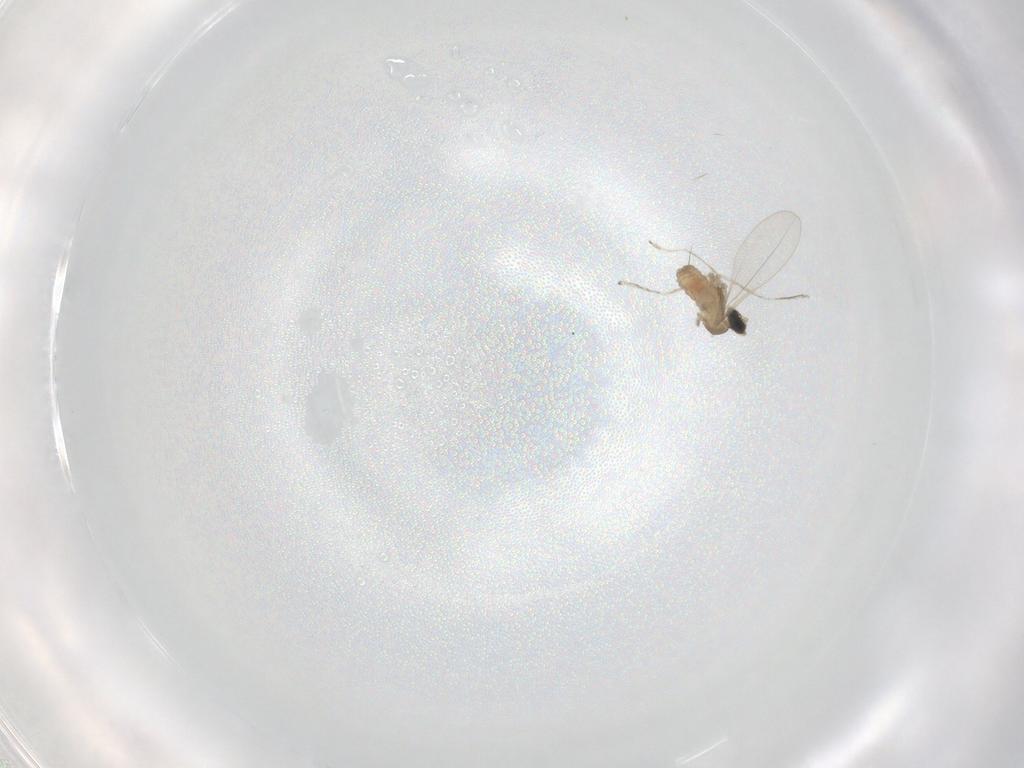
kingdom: Animalia
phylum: Arthropoda
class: Insecta
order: Diptera
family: Cecidomyiidae
